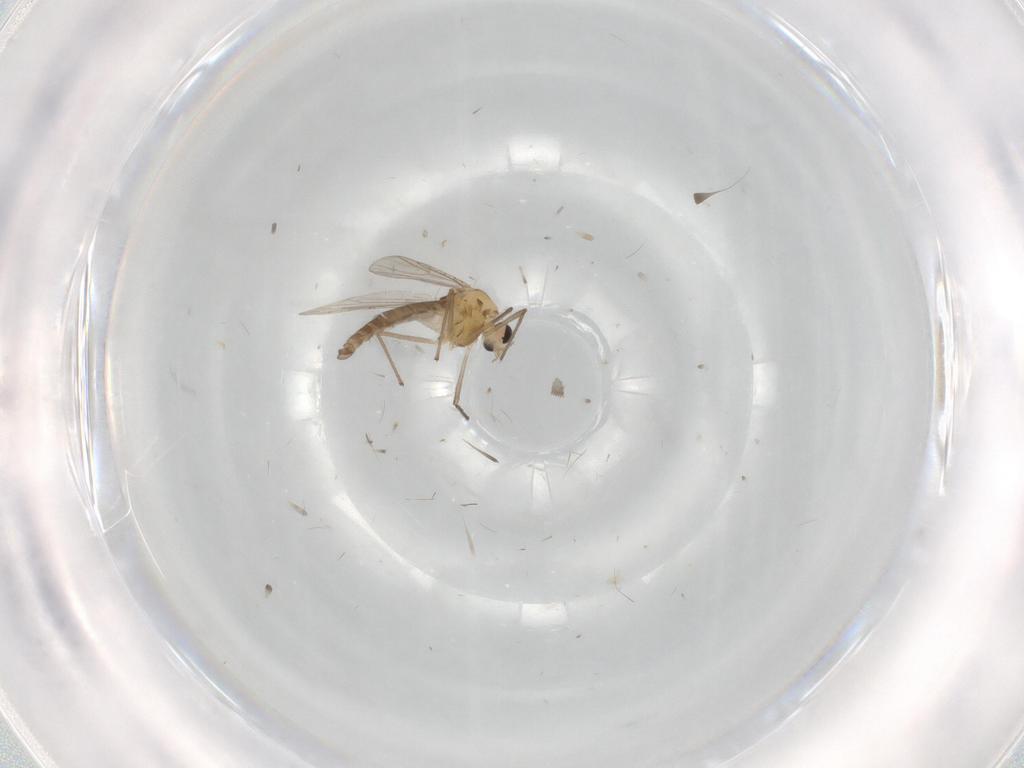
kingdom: Animalia
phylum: Arthropoda
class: Insecta
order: Diptera
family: Chironomidae
